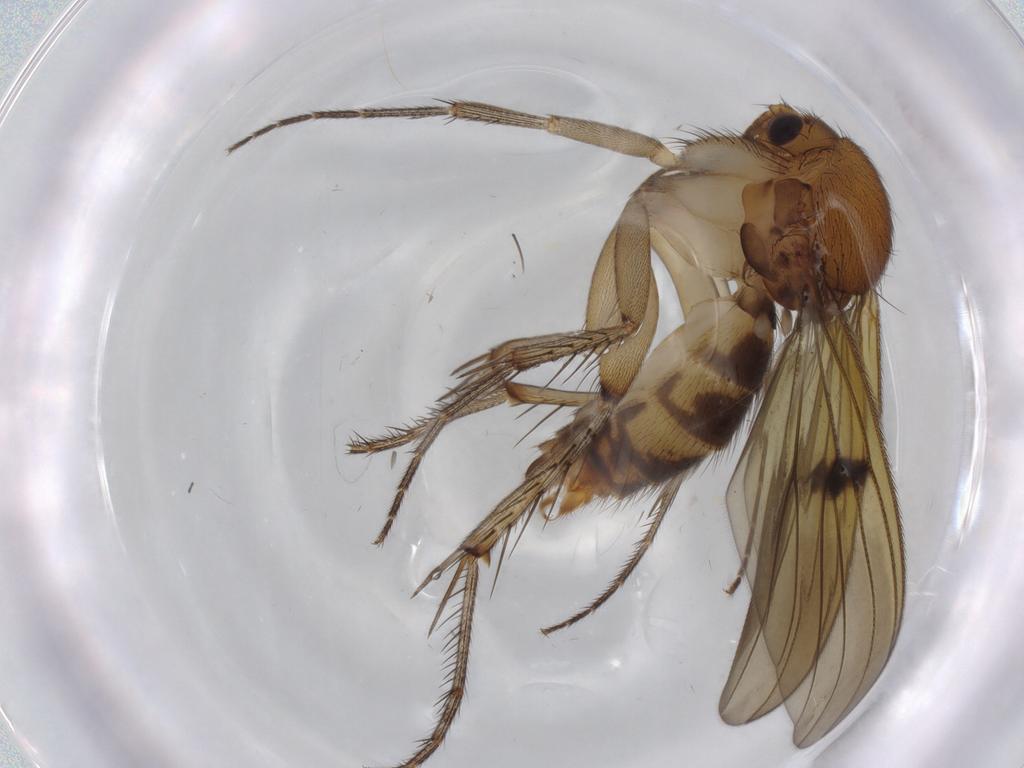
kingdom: Animalia
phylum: Arthropoda
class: Insecta
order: Diptera
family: Mycetophilidae
